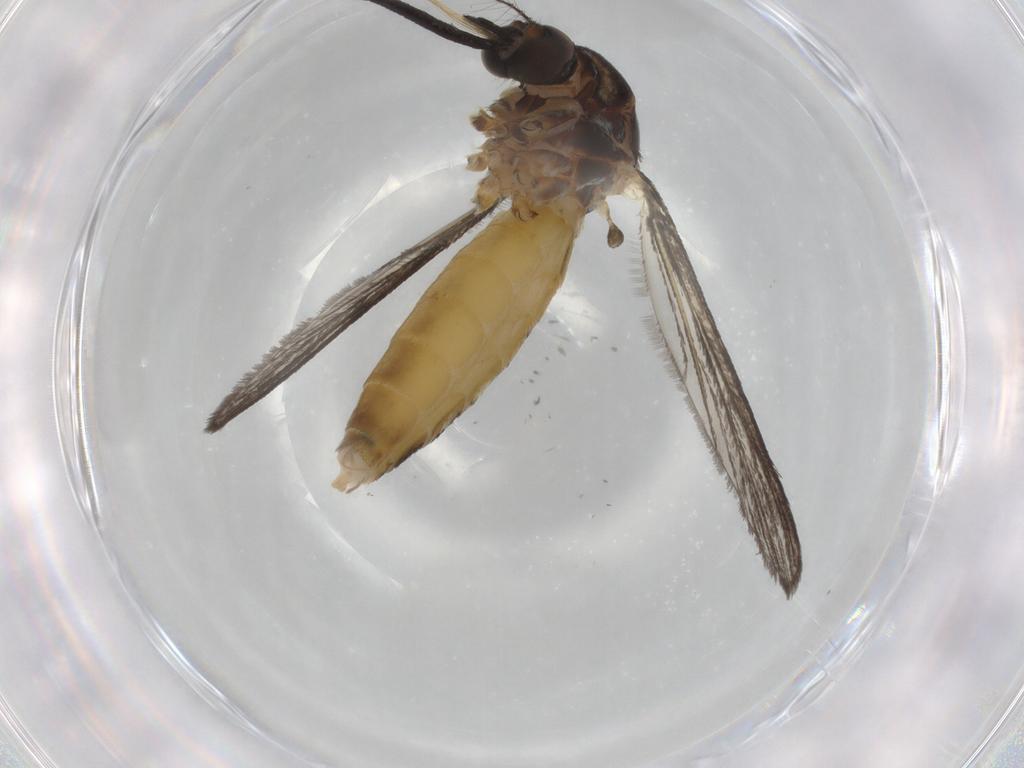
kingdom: Animalia
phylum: Arthropoda
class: Insecta
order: Diptera
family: Cecidomyiidae
